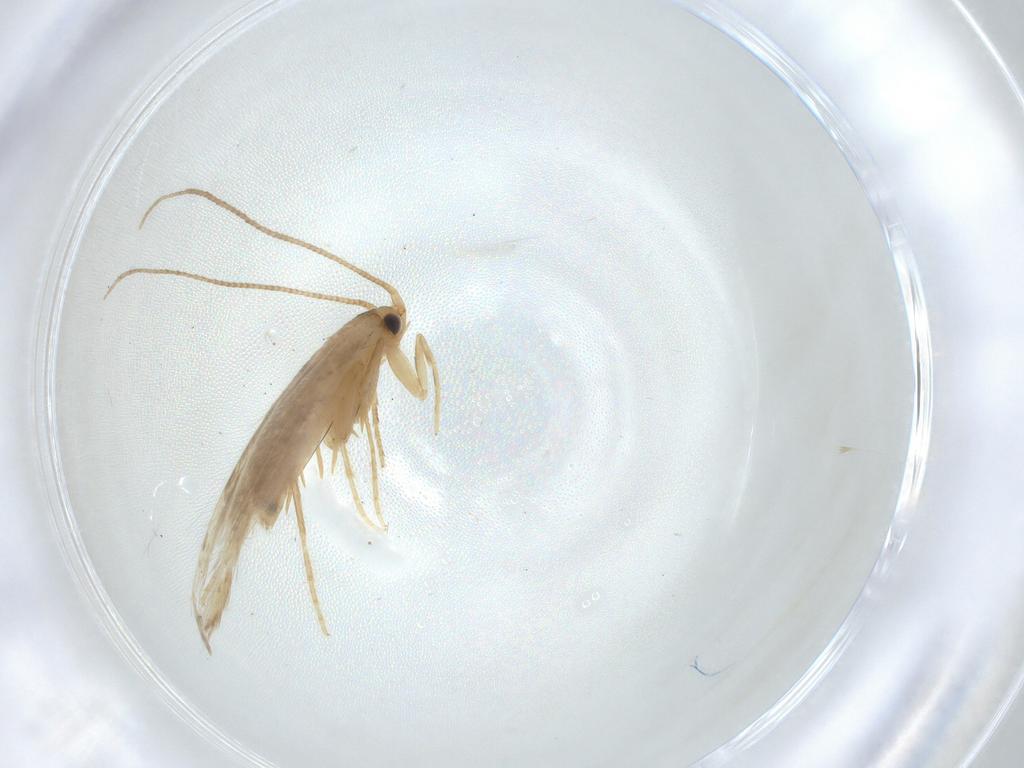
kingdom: Animalia
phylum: Arthropoda
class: Insecta
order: Lepidoptera
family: Tineidae
